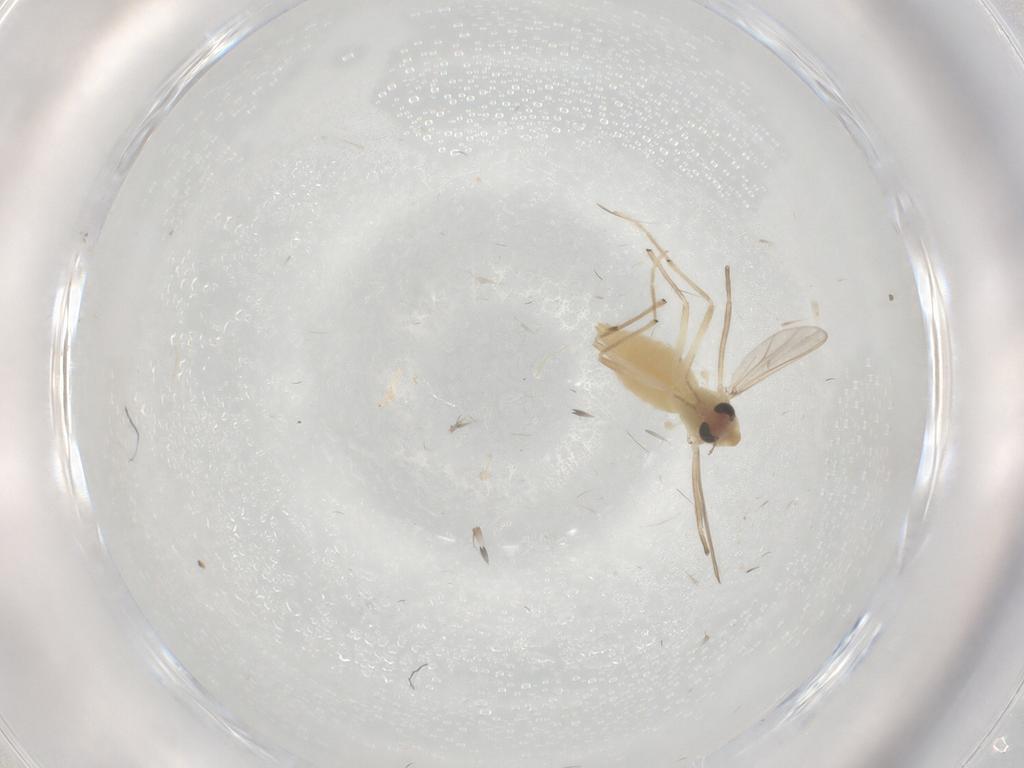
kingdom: Animalia
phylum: Arthropoda
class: Insecta
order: Diptera
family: Chironomidae
